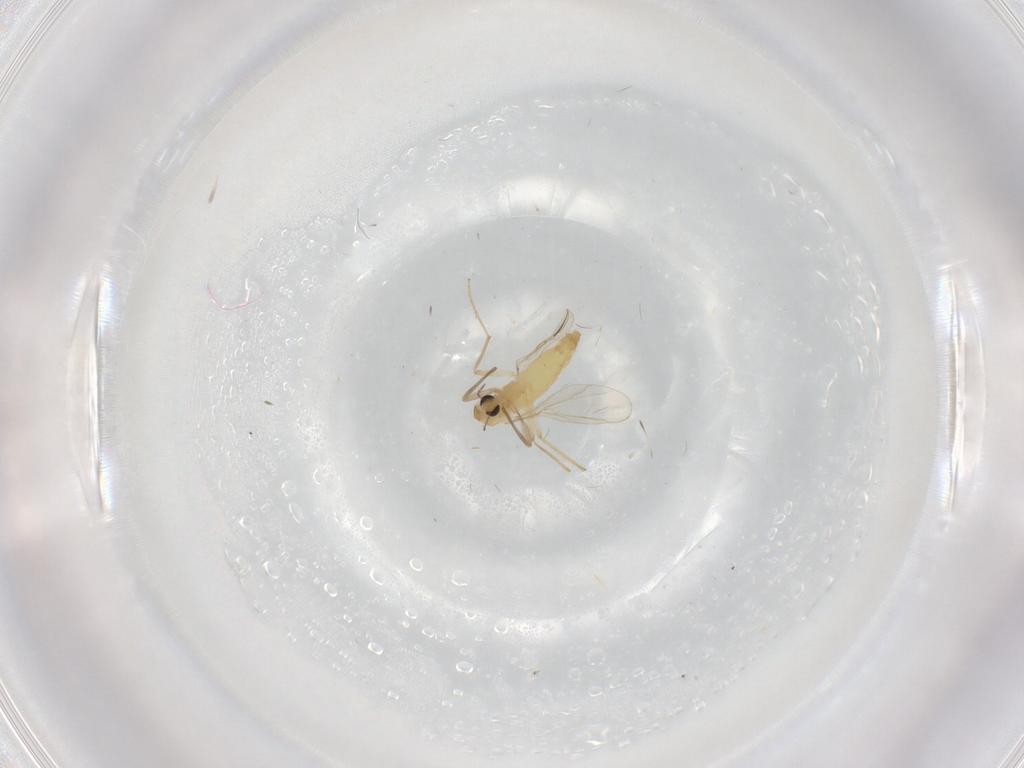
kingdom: Animalia
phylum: Arthropoda
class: Insecta
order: Diptera
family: Chironomidae
